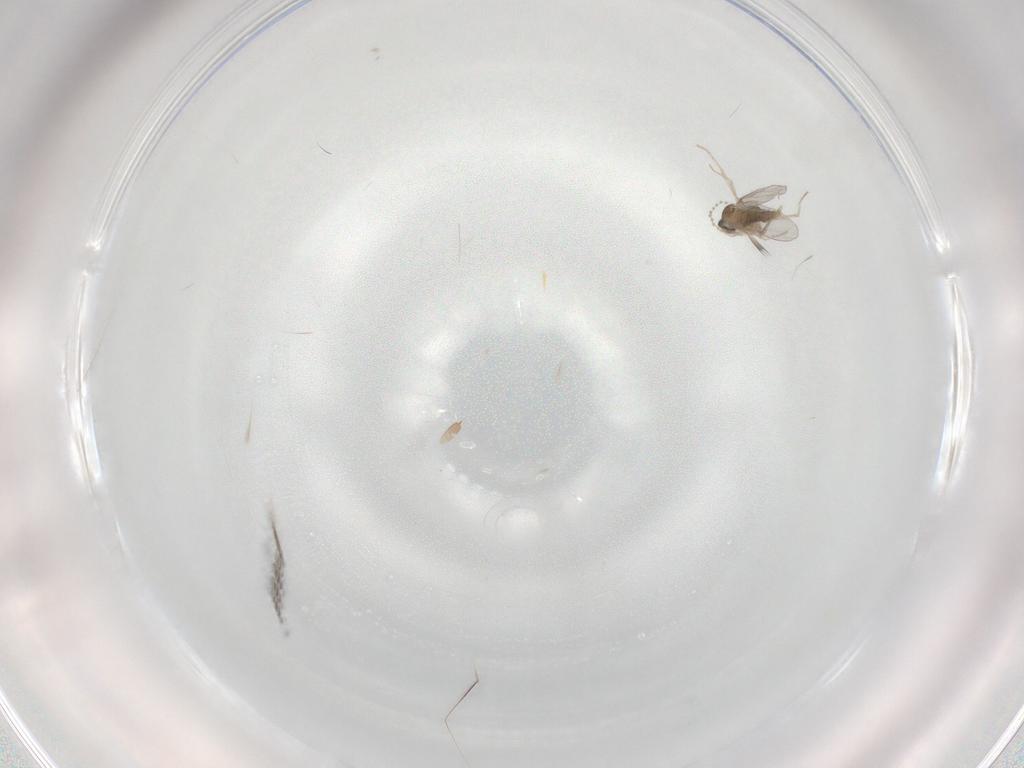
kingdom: Animalia
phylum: Arthropoda
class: Insecta
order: Diptera
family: Cecidomyiidae
